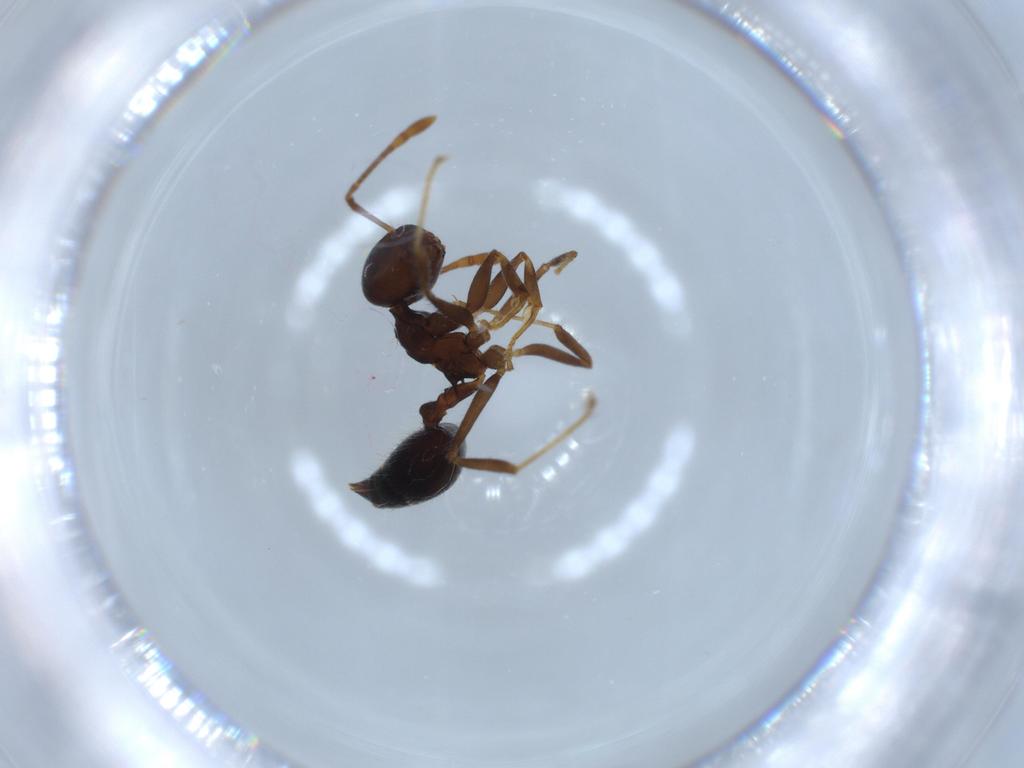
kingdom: Animalia
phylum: Arthropoda
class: Insecta
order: Hymenoptera
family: Formicidae
